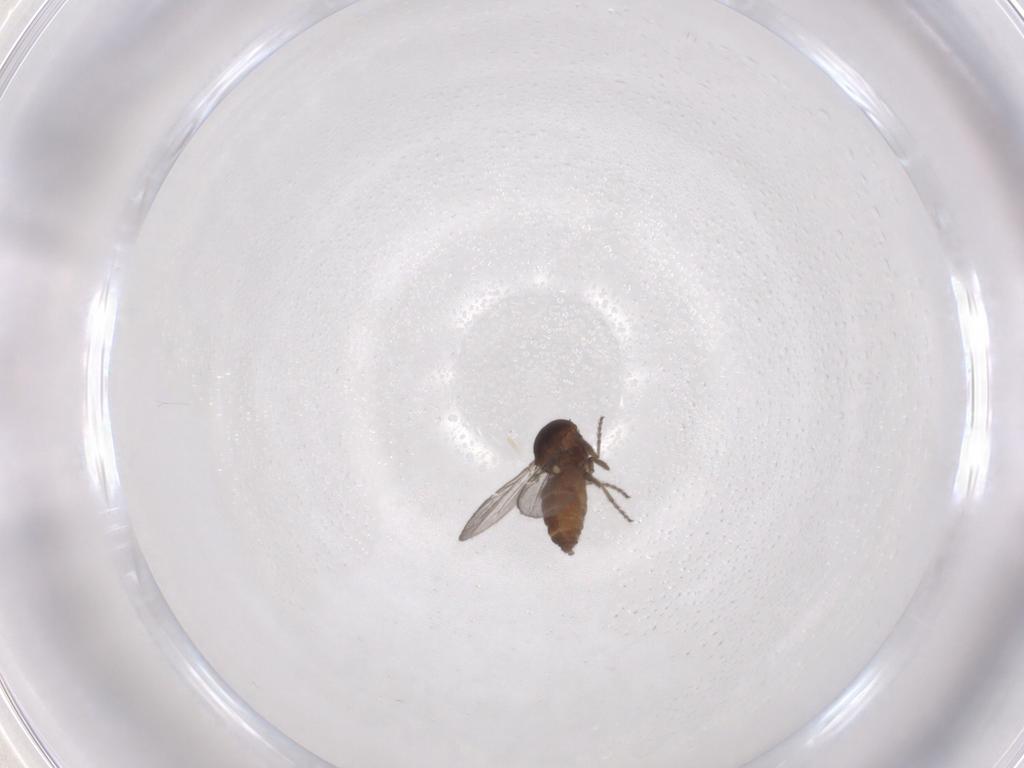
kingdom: Animalia
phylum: Arthropoda
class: Insecta
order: Diptera
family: Ceratopogonidae
